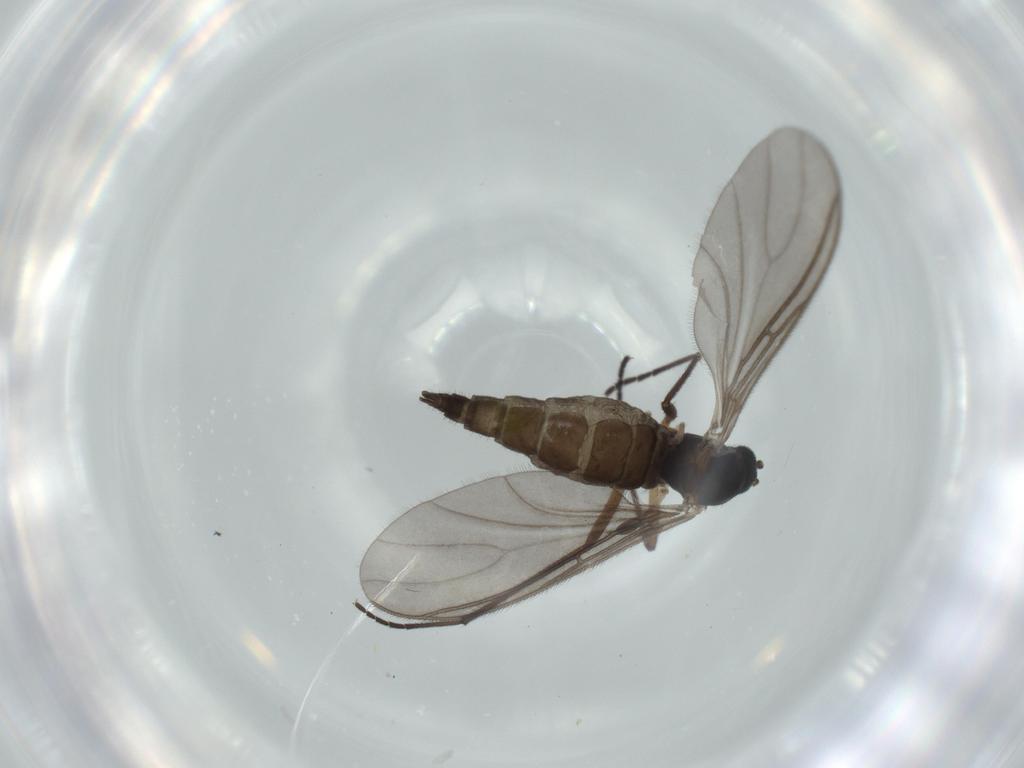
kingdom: Animalia
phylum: Arthropoda
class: Insecta
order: Diptera
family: Sciaridae
